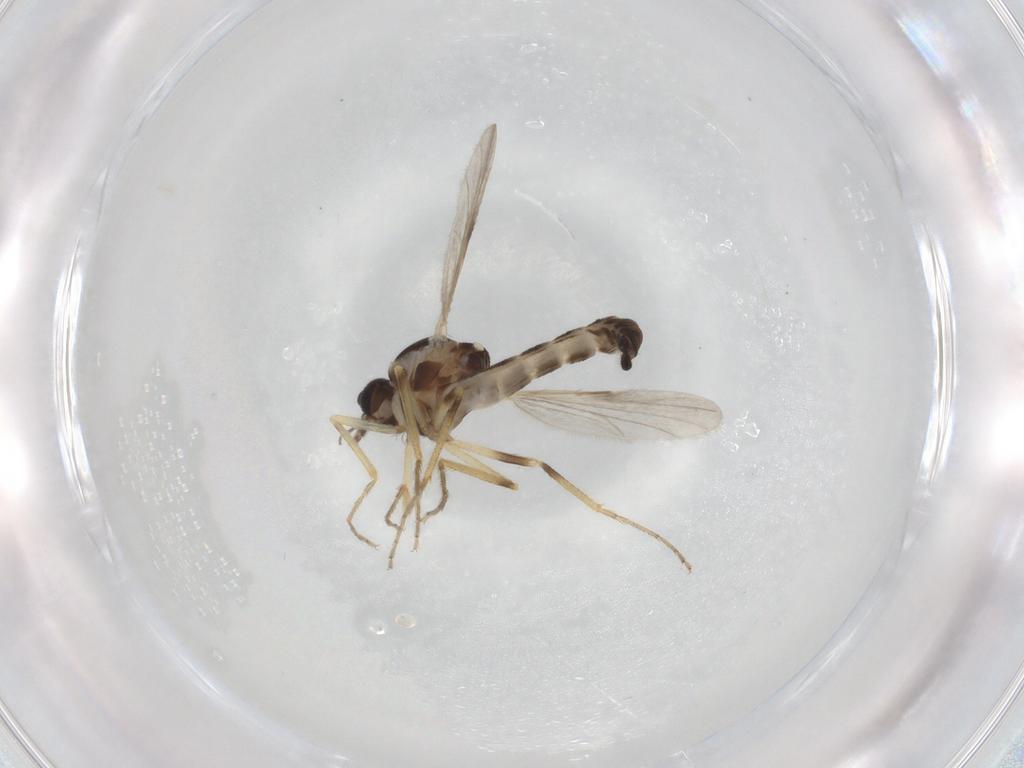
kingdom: Animalia
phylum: Arthropoda
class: Insecta
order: Diptera
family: Ceratopogonidae
